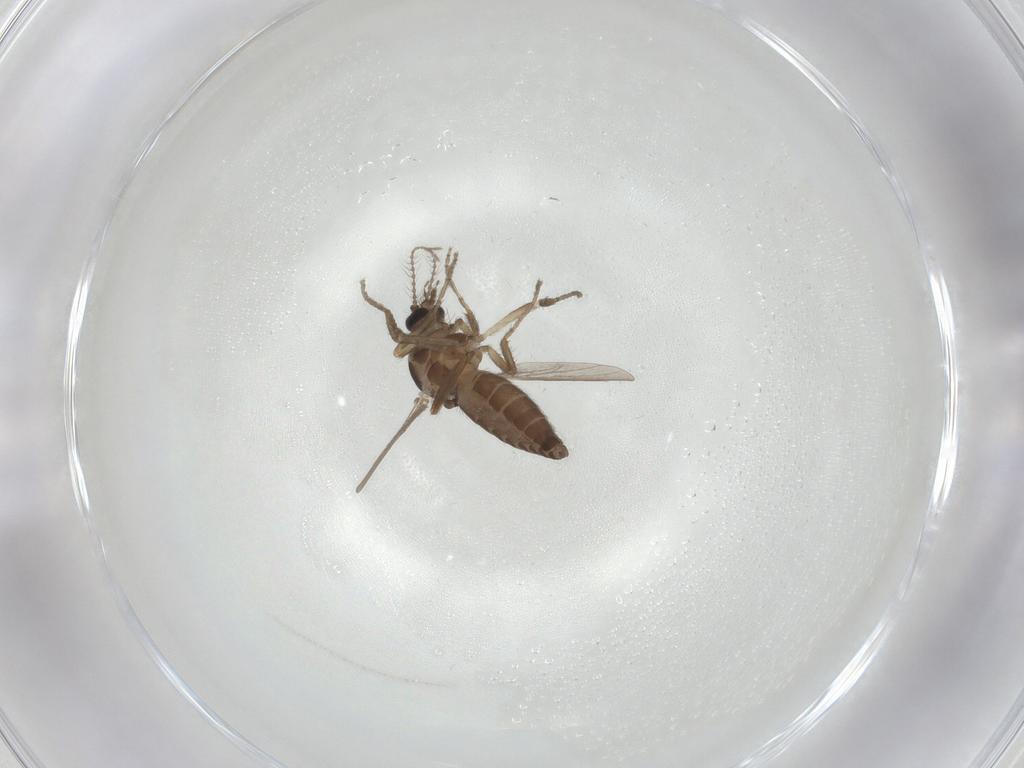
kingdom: Animalia
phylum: Arthropoda
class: Insecta
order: Diptera
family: Ceratopogonidae
